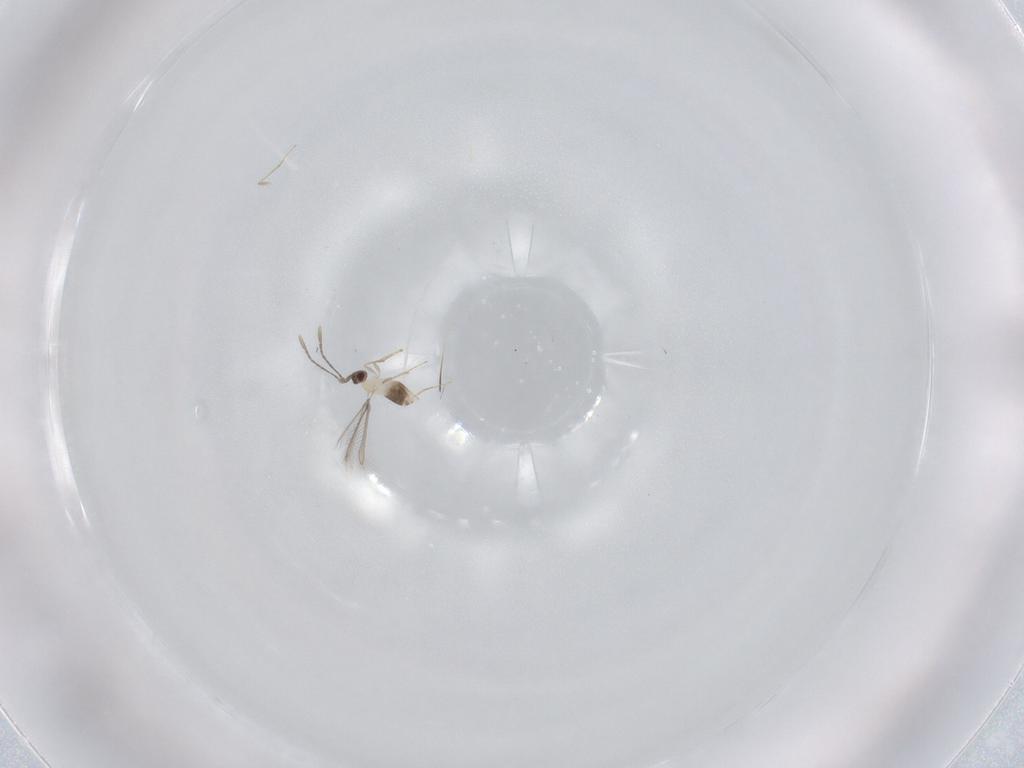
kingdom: Animalia
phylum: Arthropoda
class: Insecta
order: Hymenoptera
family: Mymaridae
